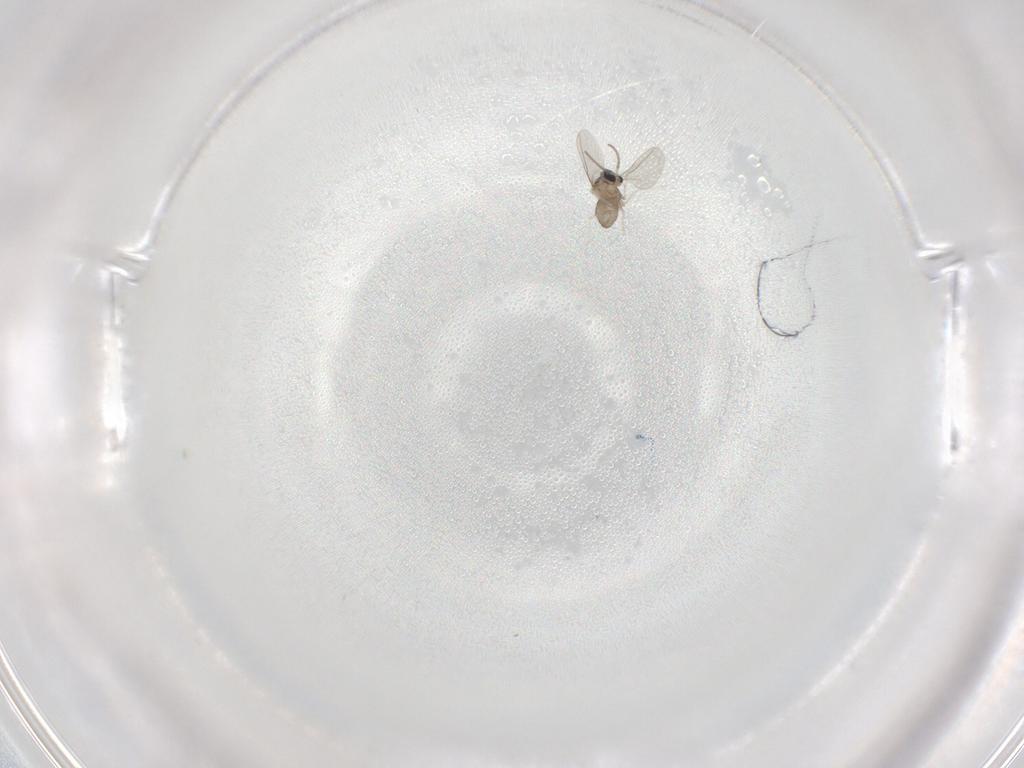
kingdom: Animalia
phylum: Arthropoda
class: Insecta
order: Diptera
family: Cecidomyiidae
